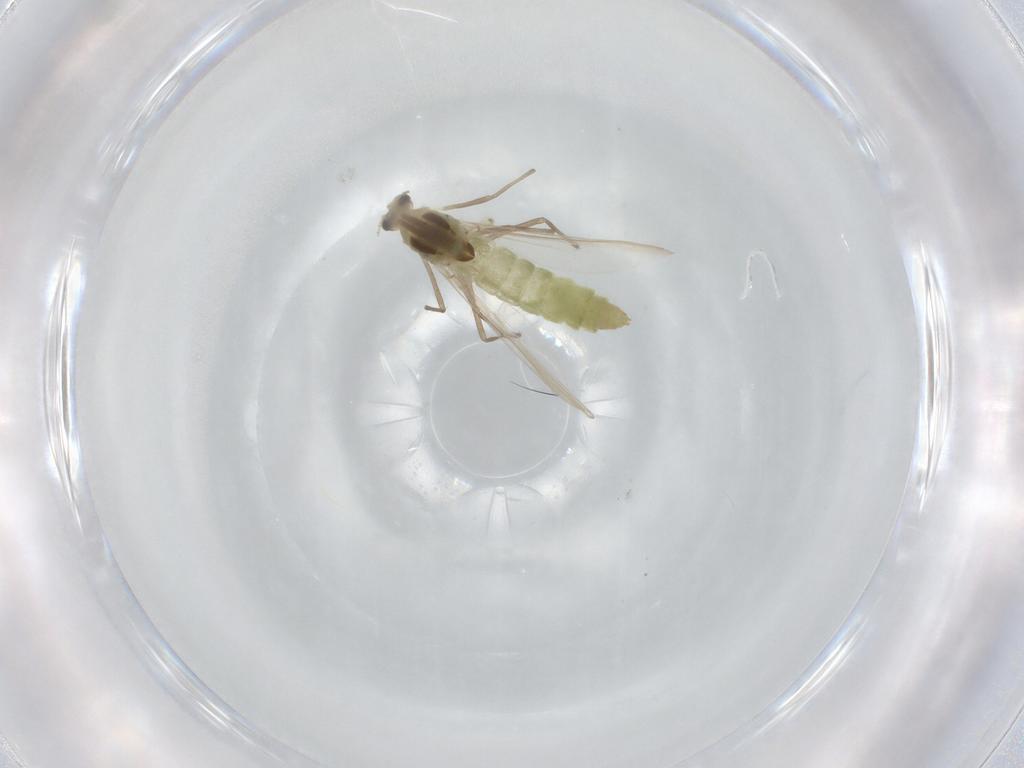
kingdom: Animalia
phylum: Arthropoda
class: Insecta
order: Diptera
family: Chironomidae
